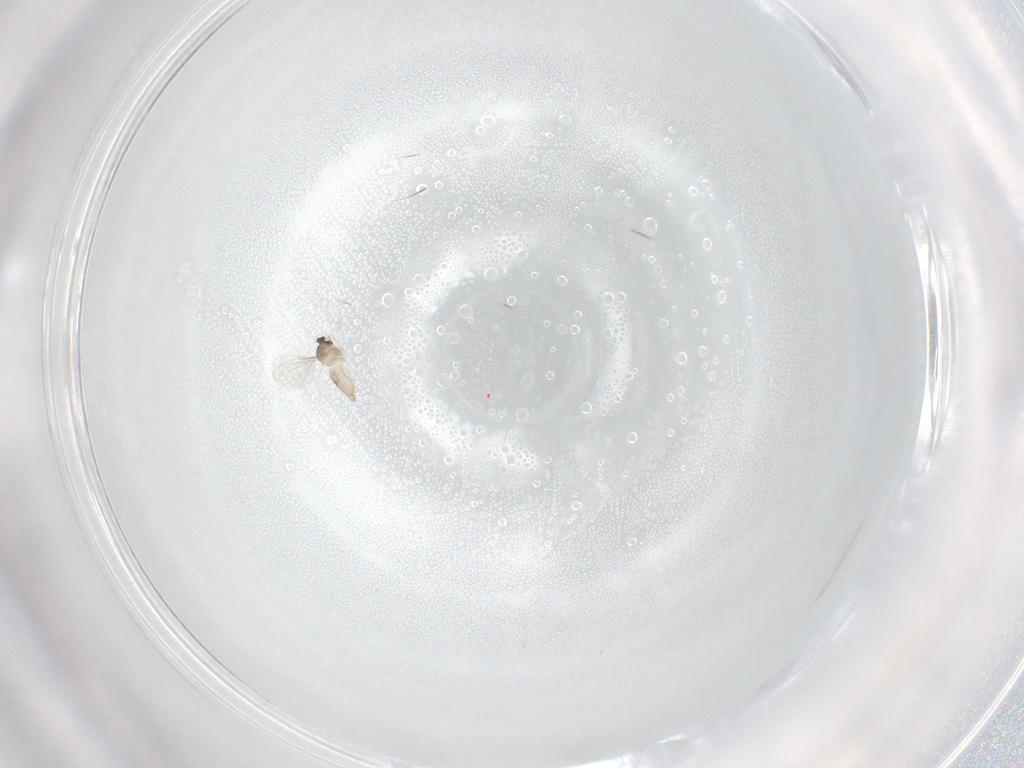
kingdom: Animalia
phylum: Arthropoda
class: Insecta
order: Diptera
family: Cecidomyiidae
